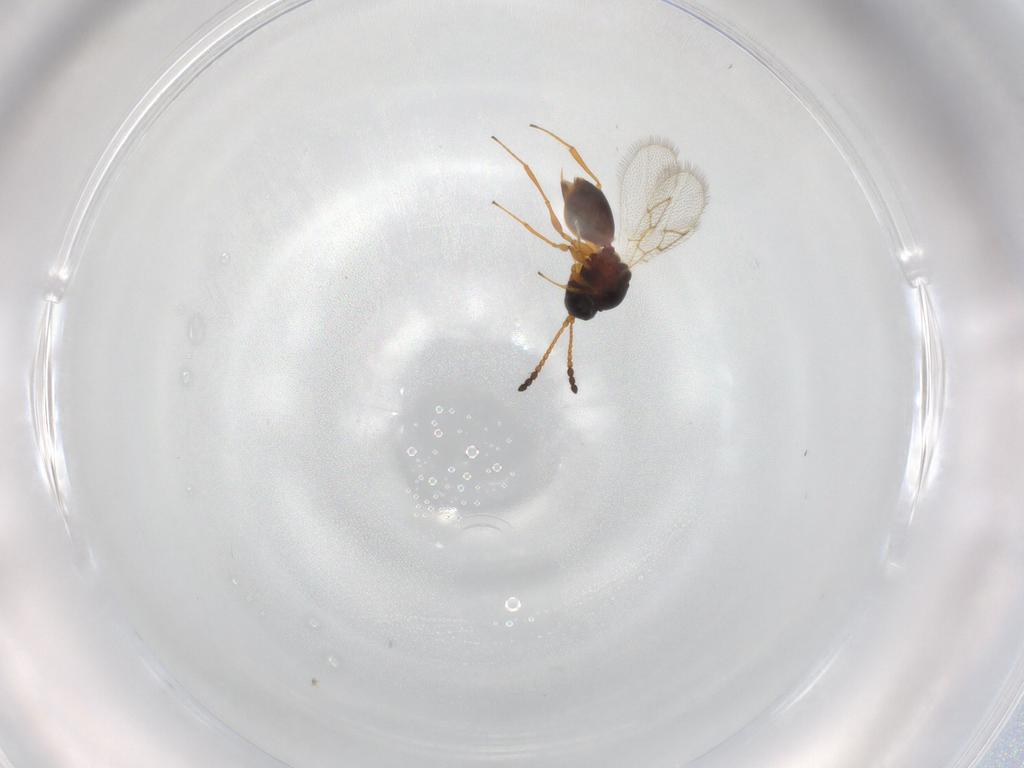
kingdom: Animalia
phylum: Arthropoda
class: Insecta
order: Hymenoptera
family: Figitidae
